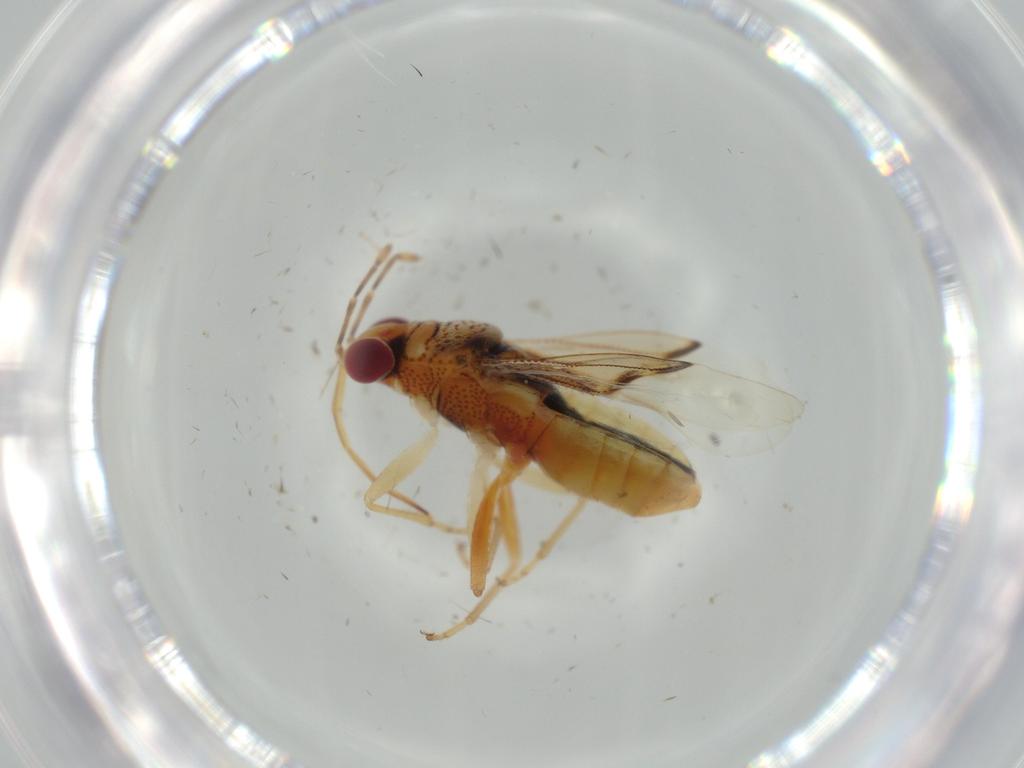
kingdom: Animalia
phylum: Arthropoda
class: Insecta
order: Hemiptera
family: Geocoridae
